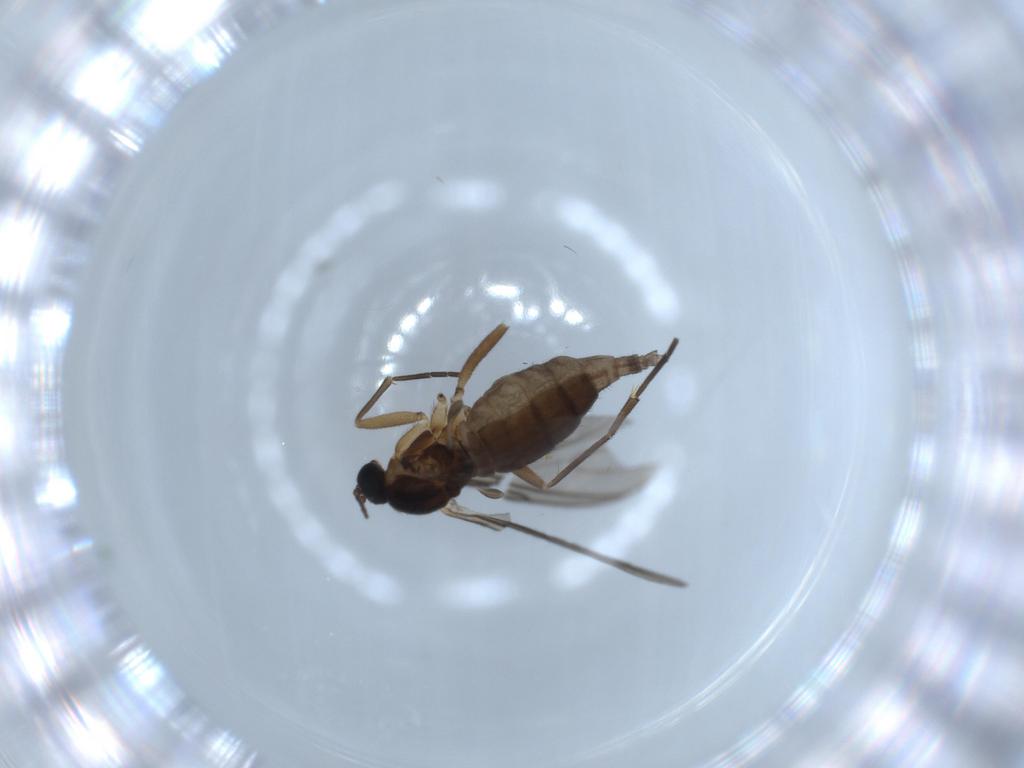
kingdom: Animalia
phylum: Arthropoda
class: Insecta
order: Diptera
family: Sciaridae
